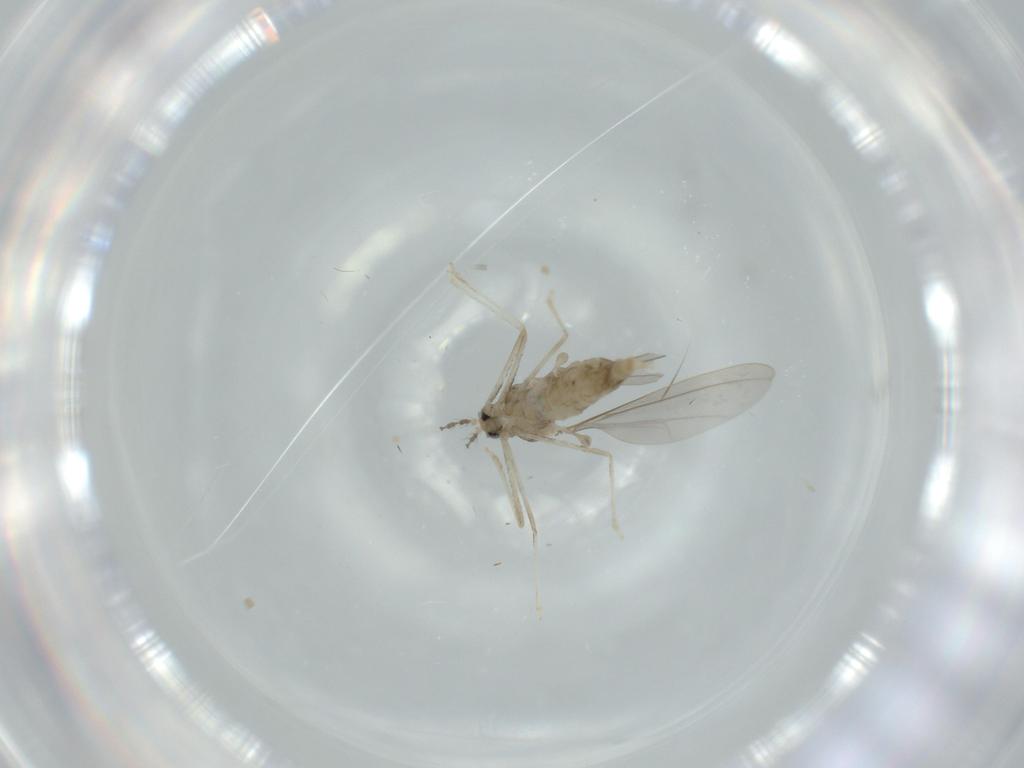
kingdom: Animalia
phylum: Arthropoda
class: Insecta
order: Diptera
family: Cecidomyiidae
